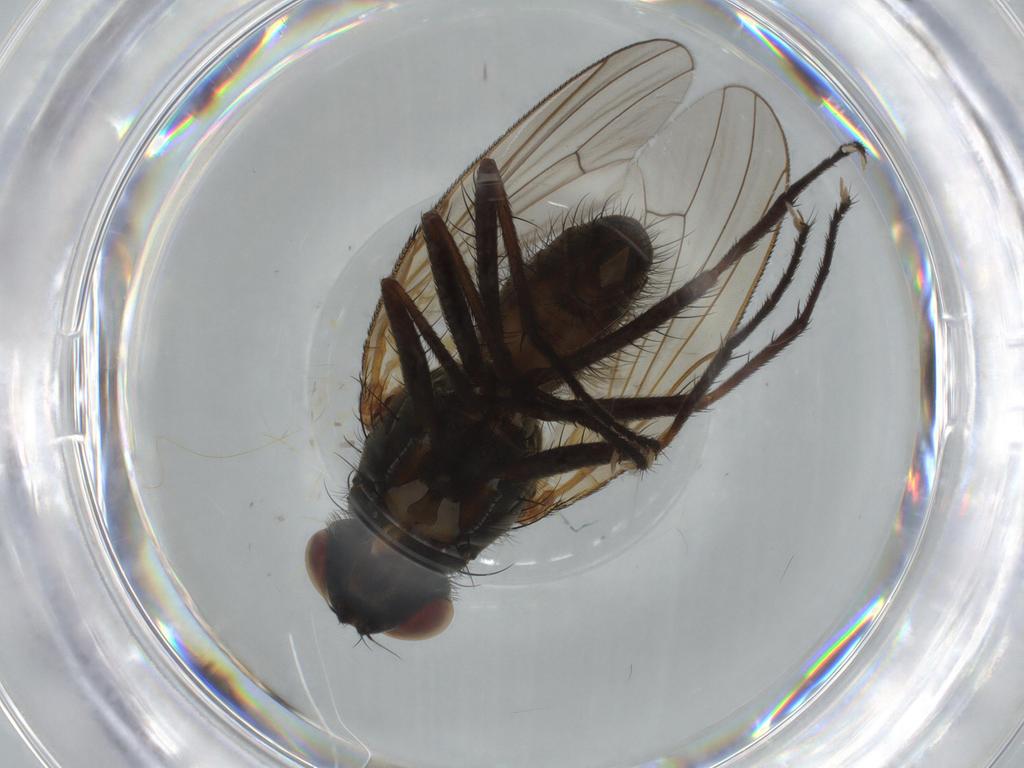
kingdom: Animalia
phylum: Arthropoda
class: Insecta
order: Diptera
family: Anthomyiidae
